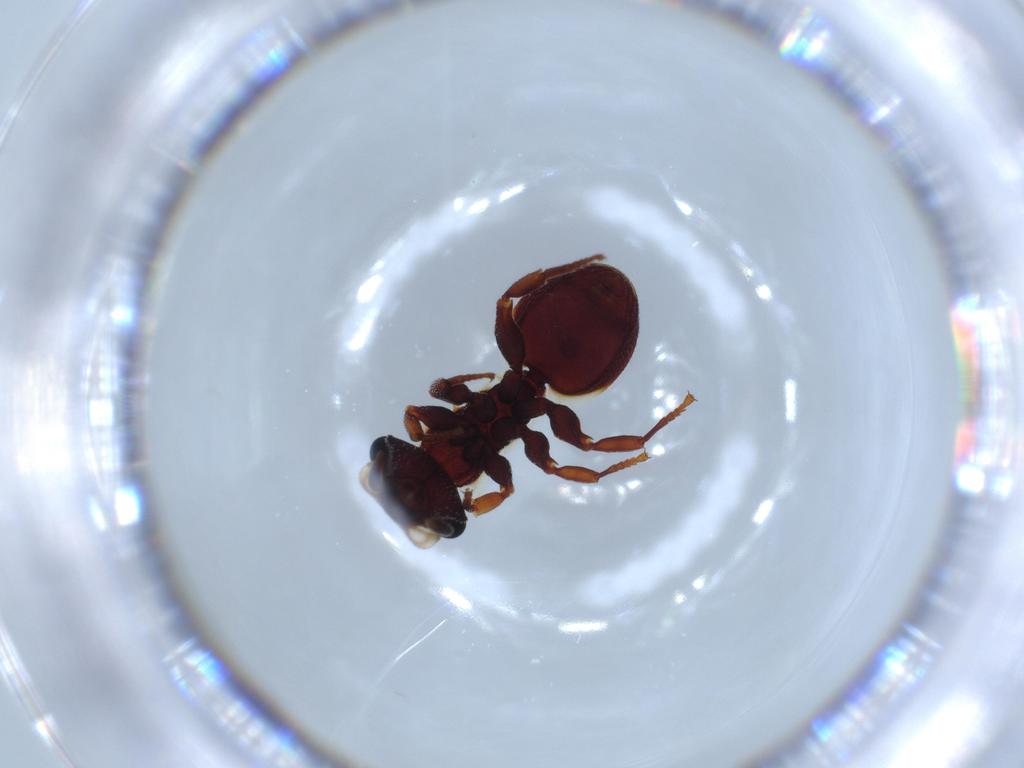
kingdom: Animalia
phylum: Arthropoda
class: Insecta
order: Hymenoptera
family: Formicidae
